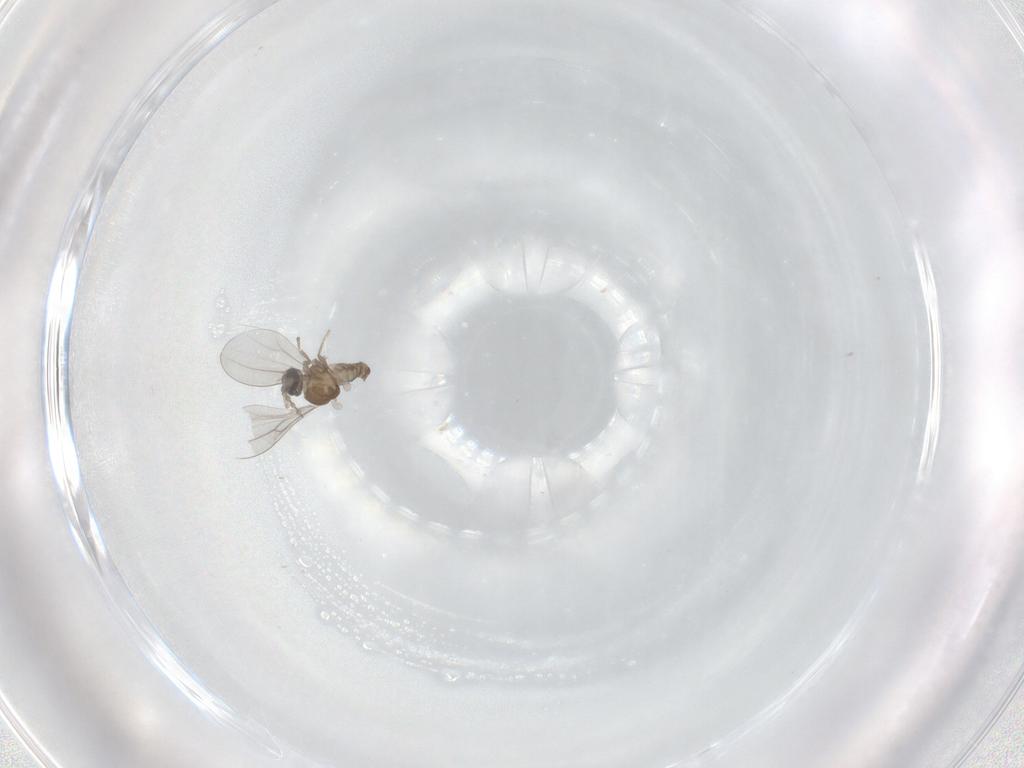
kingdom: Animalia
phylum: Arthropoda
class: Insecta
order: Diptera
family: Cecidomyiidae
